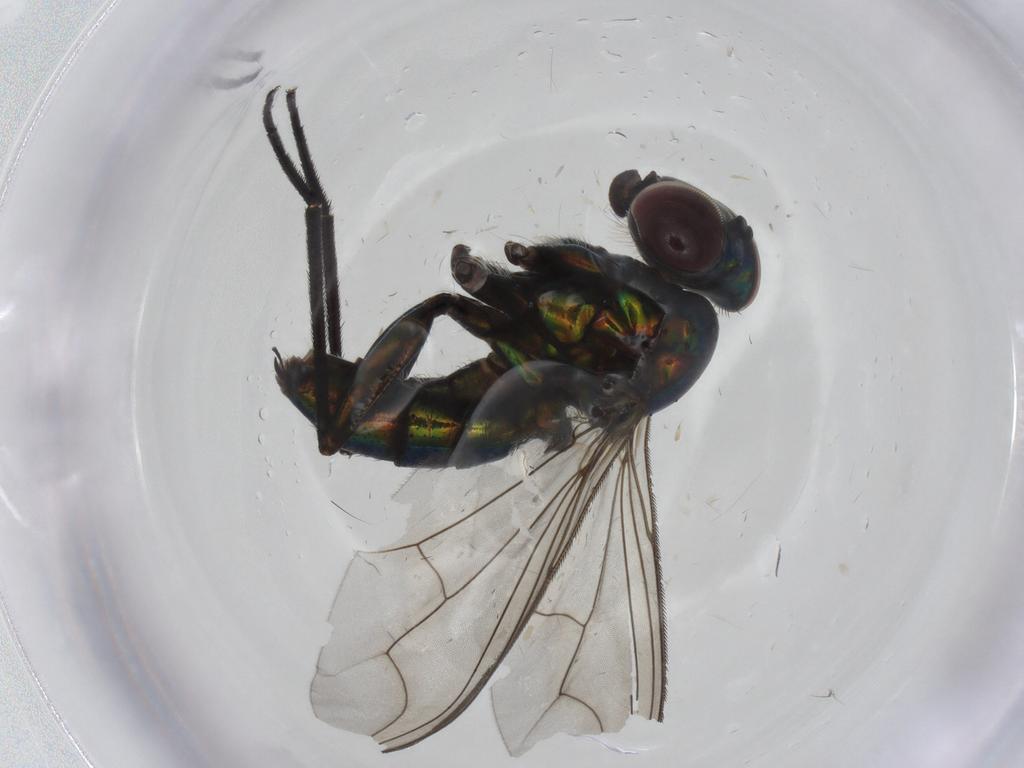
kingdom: Animalia
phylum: Arthropoda
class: Insecta
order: Diptera
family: Dolichopodidae
